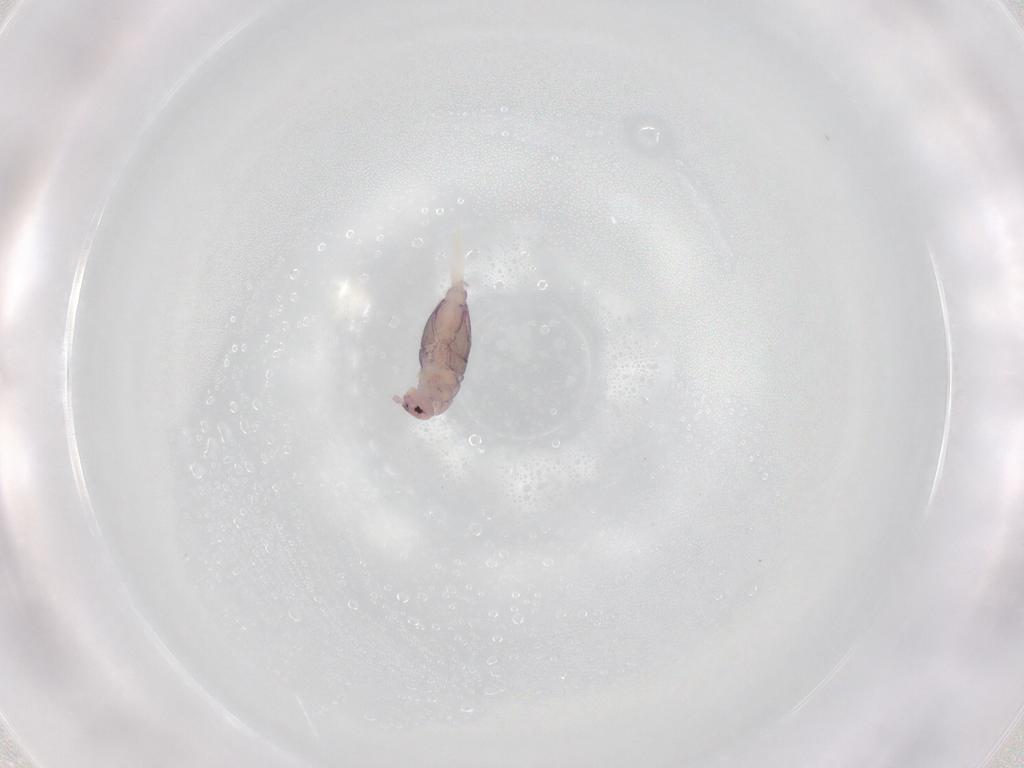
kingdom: Animalia
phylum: Arthropoda
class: Collembola
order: Entomobryomorpha
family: Entomobryidae
